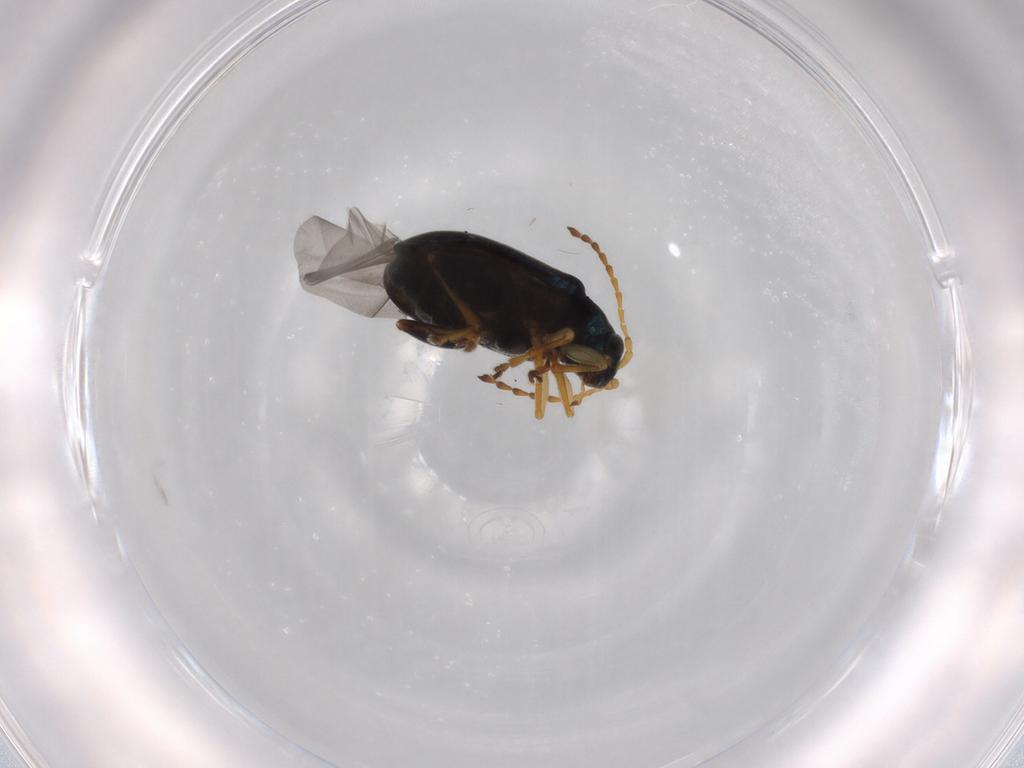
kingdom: Animalia
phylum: Arthropoda
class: Insecta
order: Coleoptera
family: Chrysomelidae
